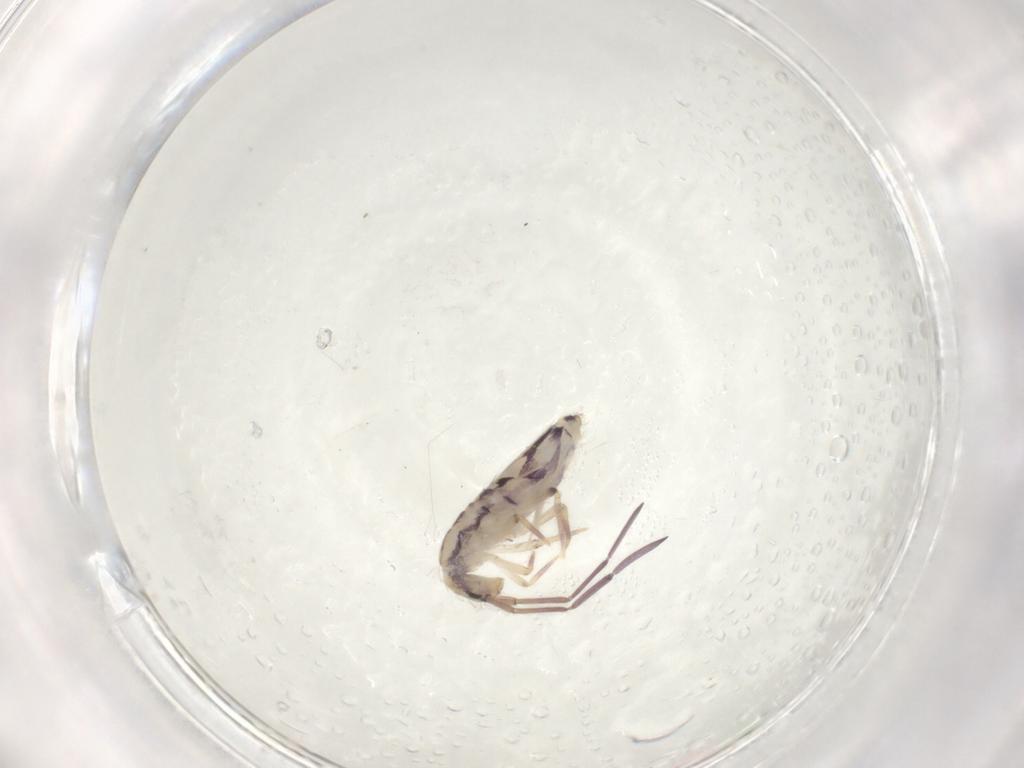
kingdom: Animalia
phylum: Arthropoda
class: Collembola
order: Entomobryomorpha
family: Entomobryidae
